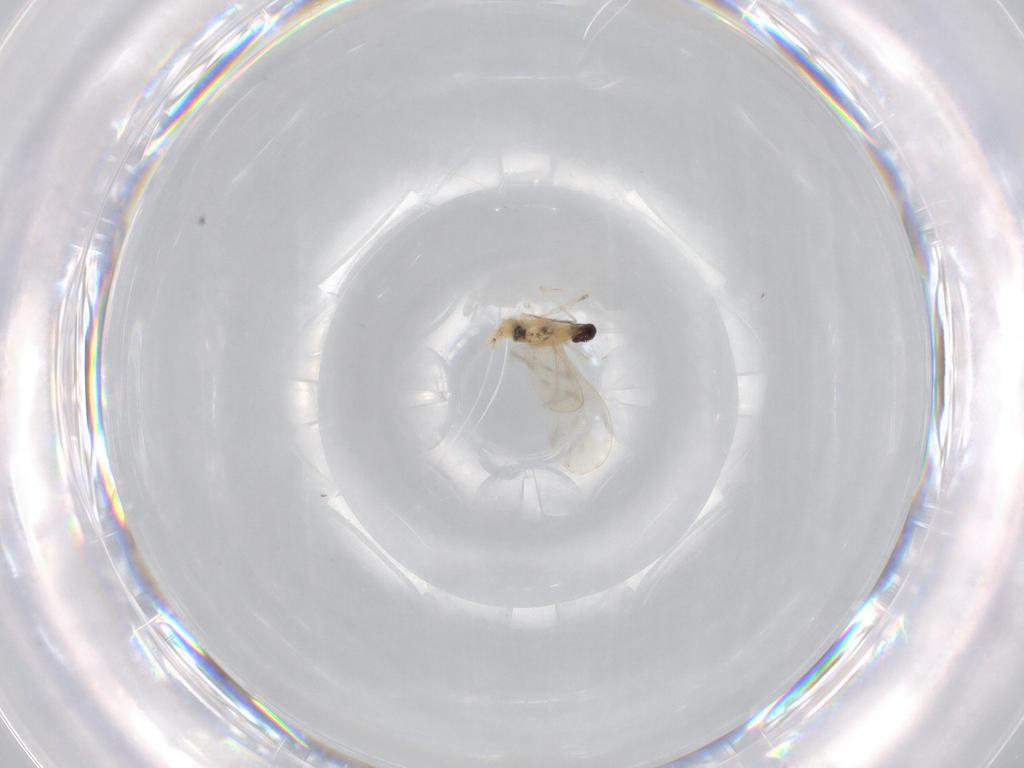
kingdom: Animalia
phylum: Arthropoda
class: Insecta
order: Diptera
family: Cecidomyiidae
